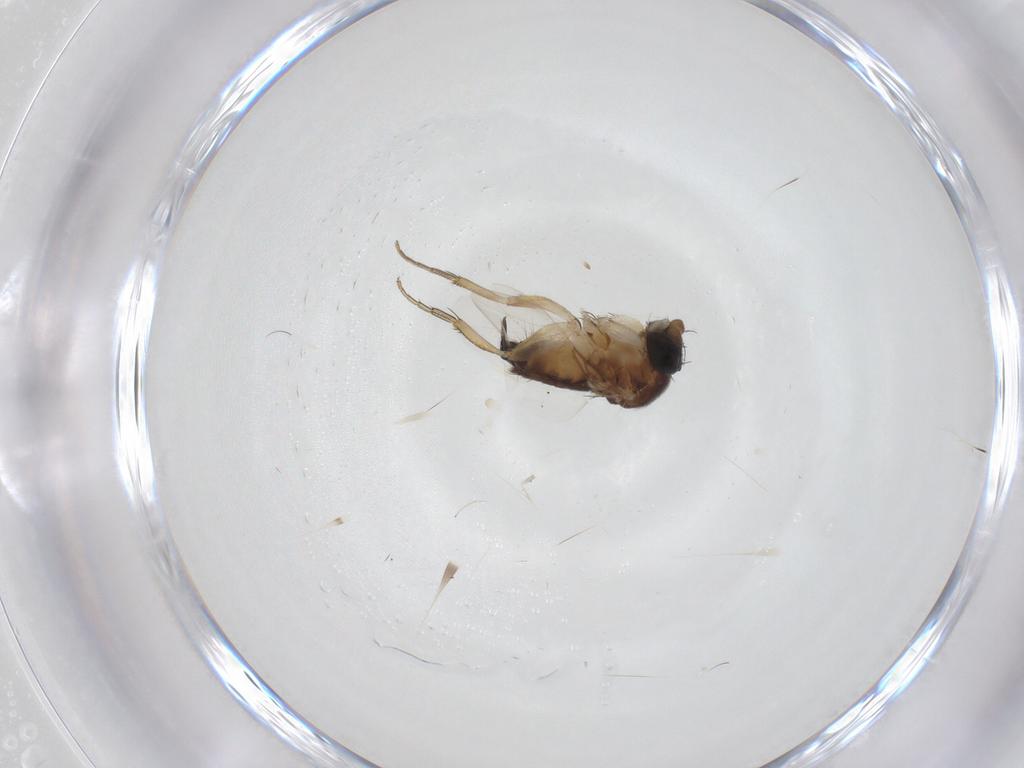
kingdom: Animalia
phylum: Arthropoda
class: Insecta
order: Diptera
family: Phoridae
